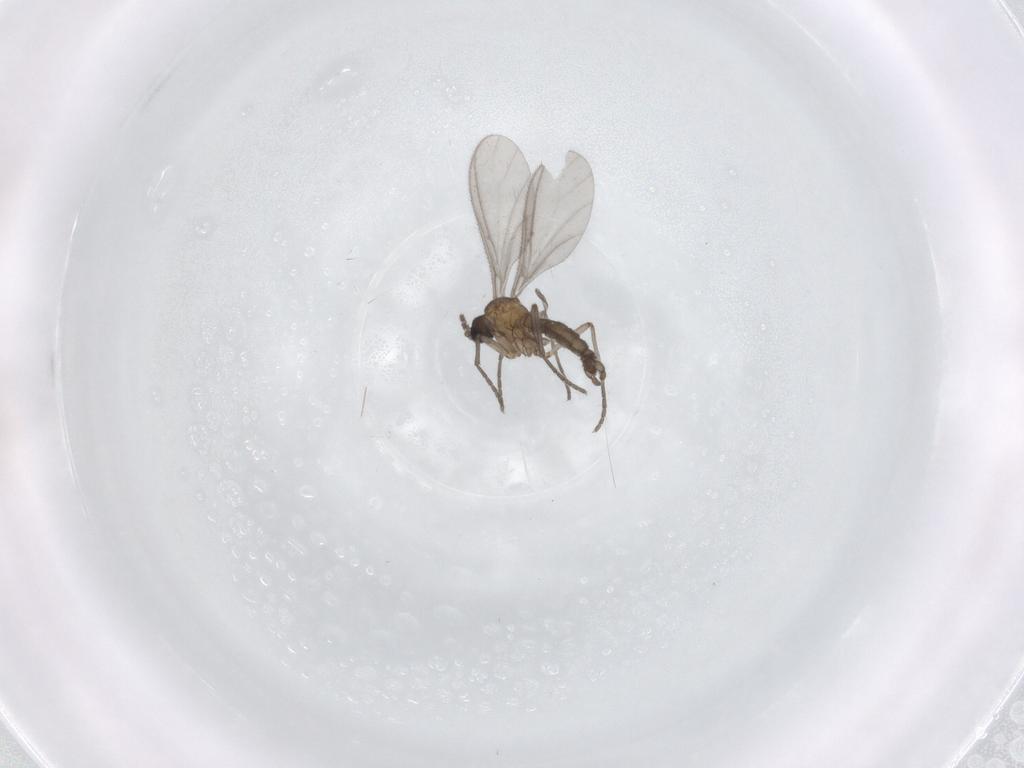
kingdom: Animalia
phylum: Arthropoda
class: Insecta
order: Diptera
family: Sciaridae
